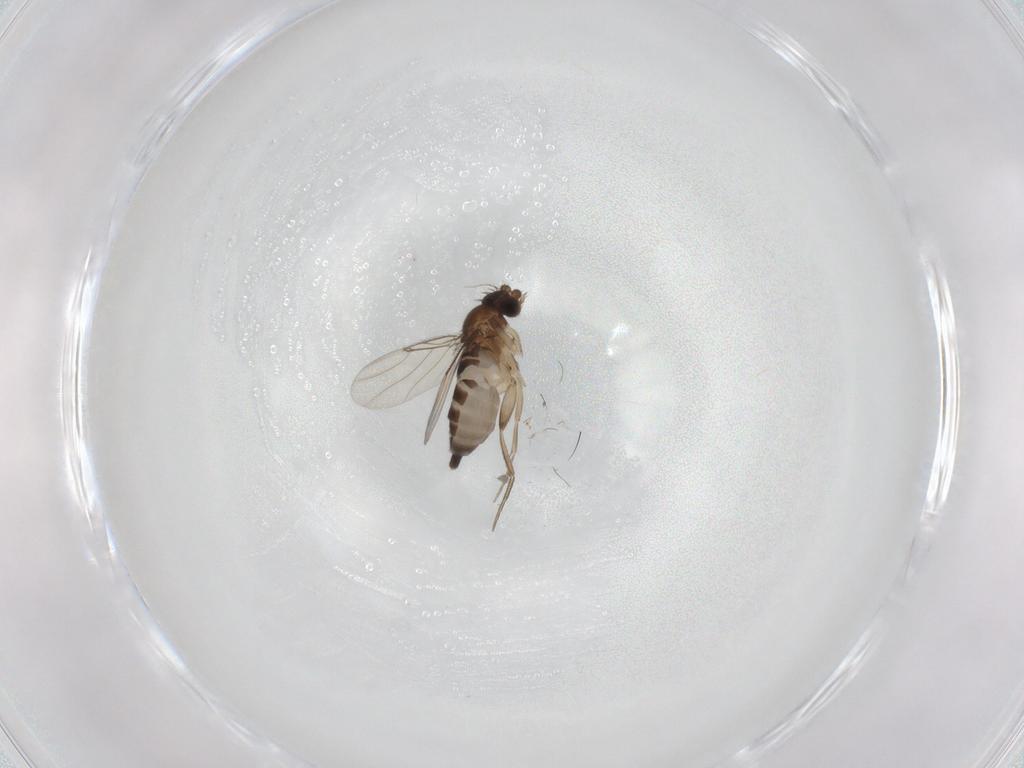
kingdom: Animalia
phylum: Arthropoda
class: Insecta
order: Diptera
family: Phoridae
